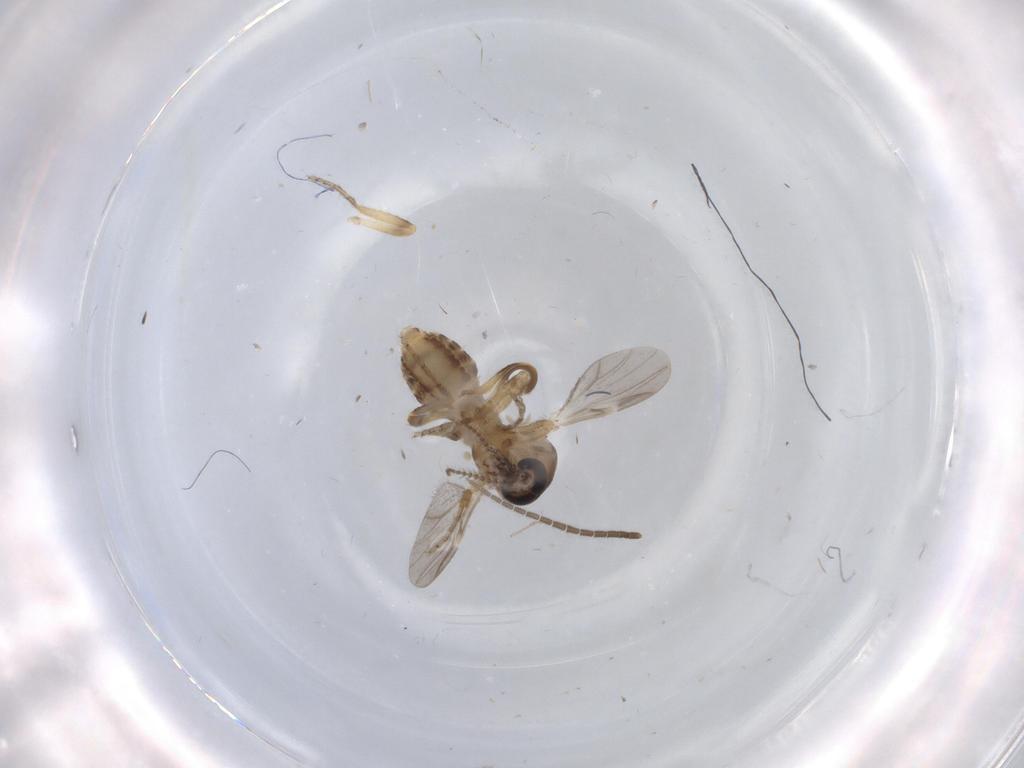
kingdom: Animalia
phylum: Arthropoda
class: Insecta
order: Diptera
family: Ceratopogonidae
